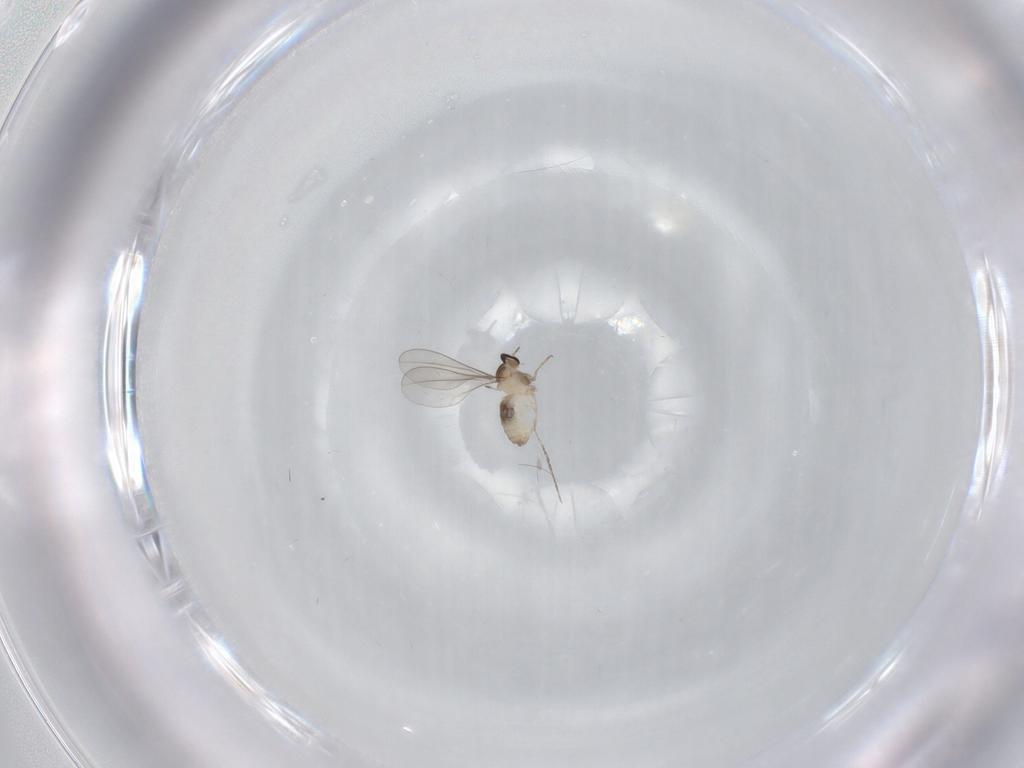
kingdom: Animalia
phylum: Arthropoda
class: Insecta
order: Diptera
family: Cecidomyiidae
